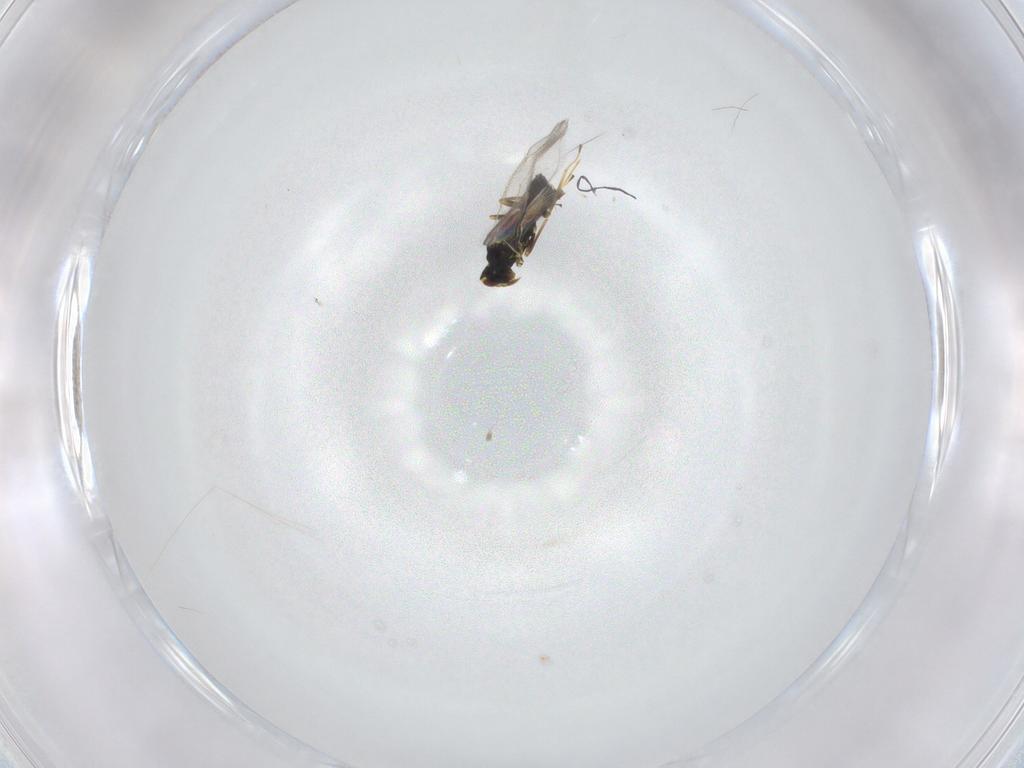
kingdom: Animalia
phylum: Arthropoda
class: Insecta
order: Hymenoptera
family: Eulophidae
